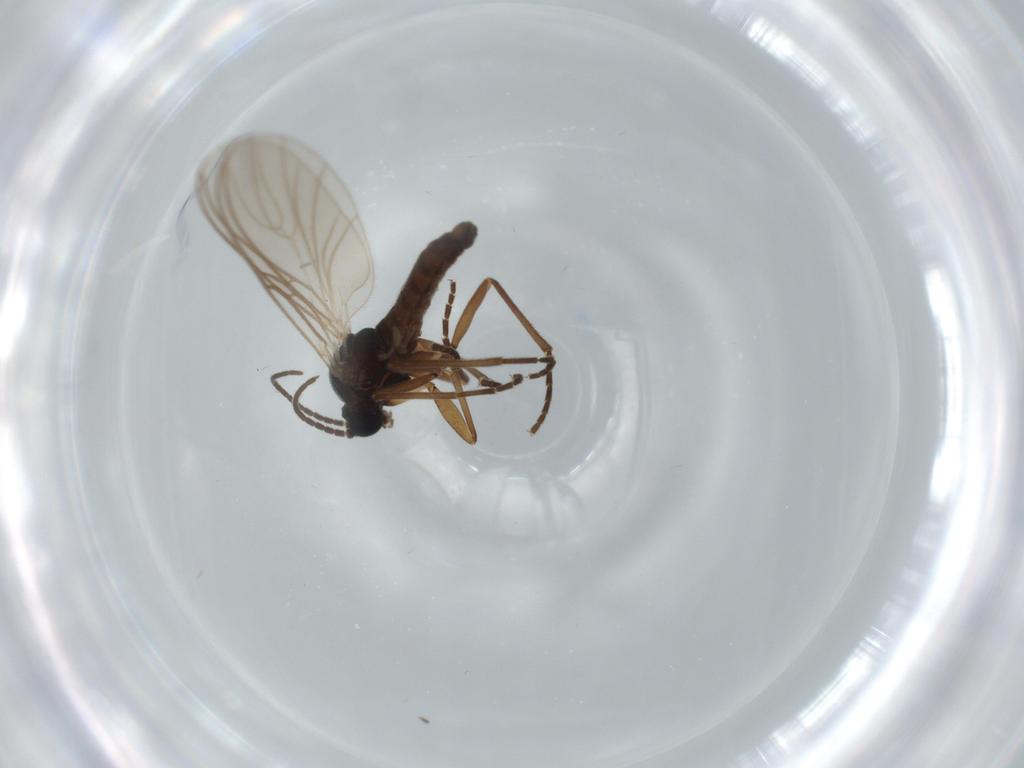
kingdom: Animalia
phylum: Arthropoda
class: Insecta
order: Diptera
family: Sciaridae
